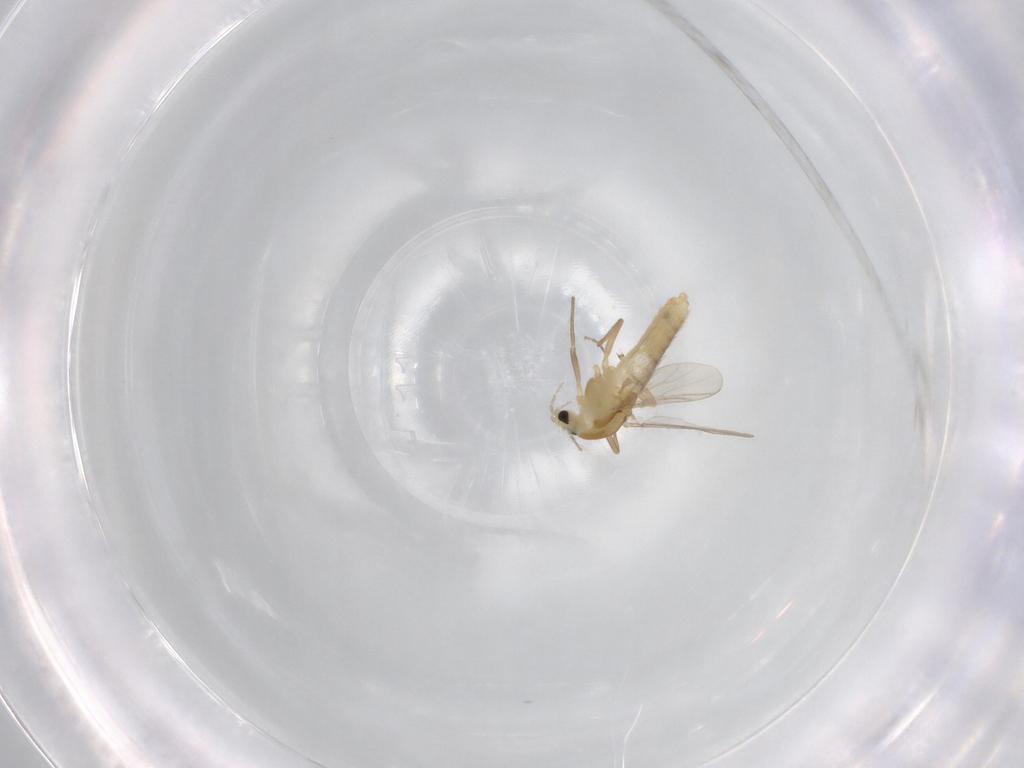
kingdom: Animalia
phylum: Arthropoda
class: Insecta
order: Diptera
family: Chironomidae
